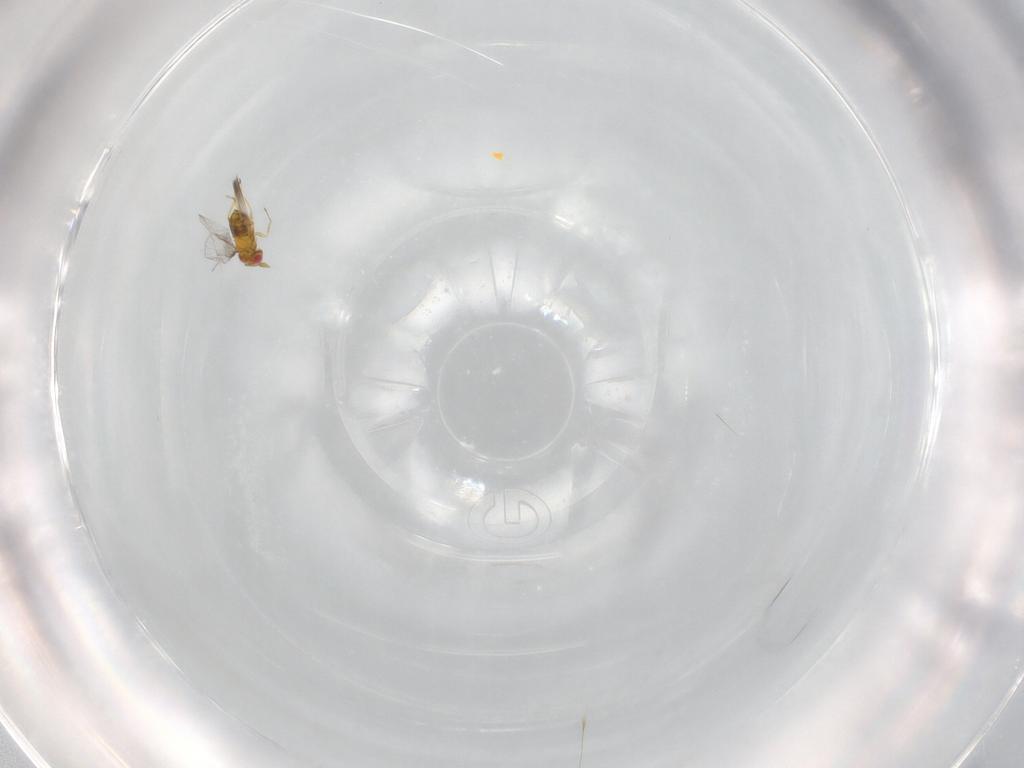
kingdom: Animalia
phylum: Arthropoda
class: Insecta
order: Hymenoptera
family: Trichogrammatidae
